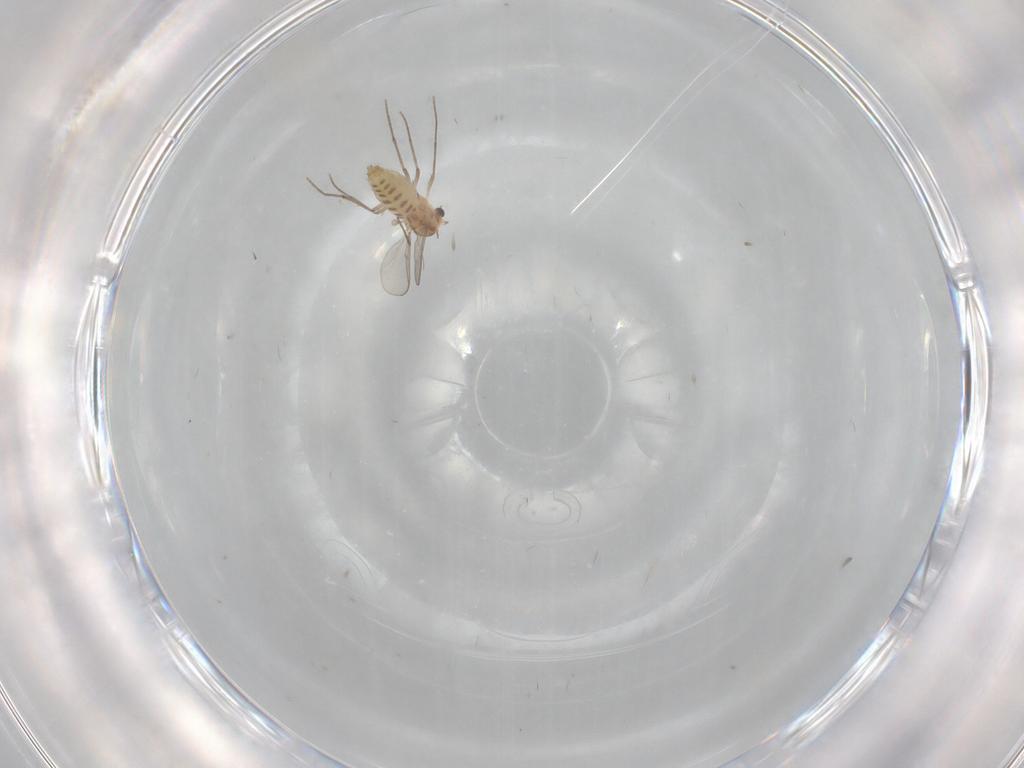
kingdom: Animalia
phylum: Arthropoda
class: Insecta
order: Diptera
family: Cecidomyiidae
